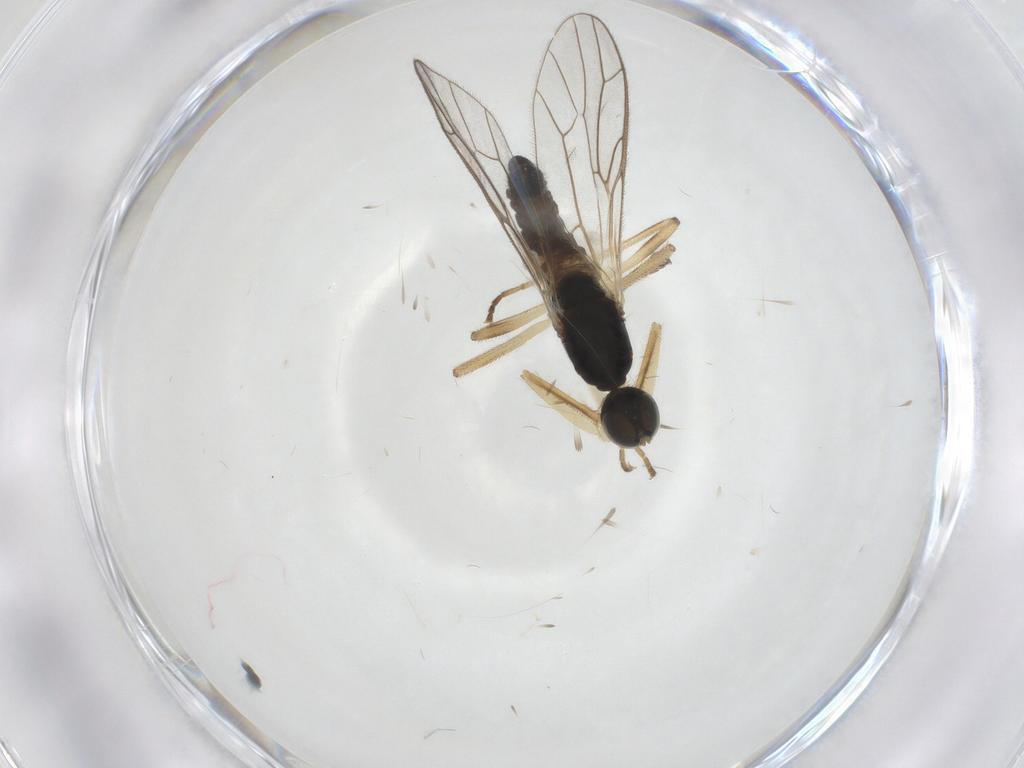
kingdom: Animalia
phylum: Arthropoda
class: Insecta
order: Diptera
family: Empididae
